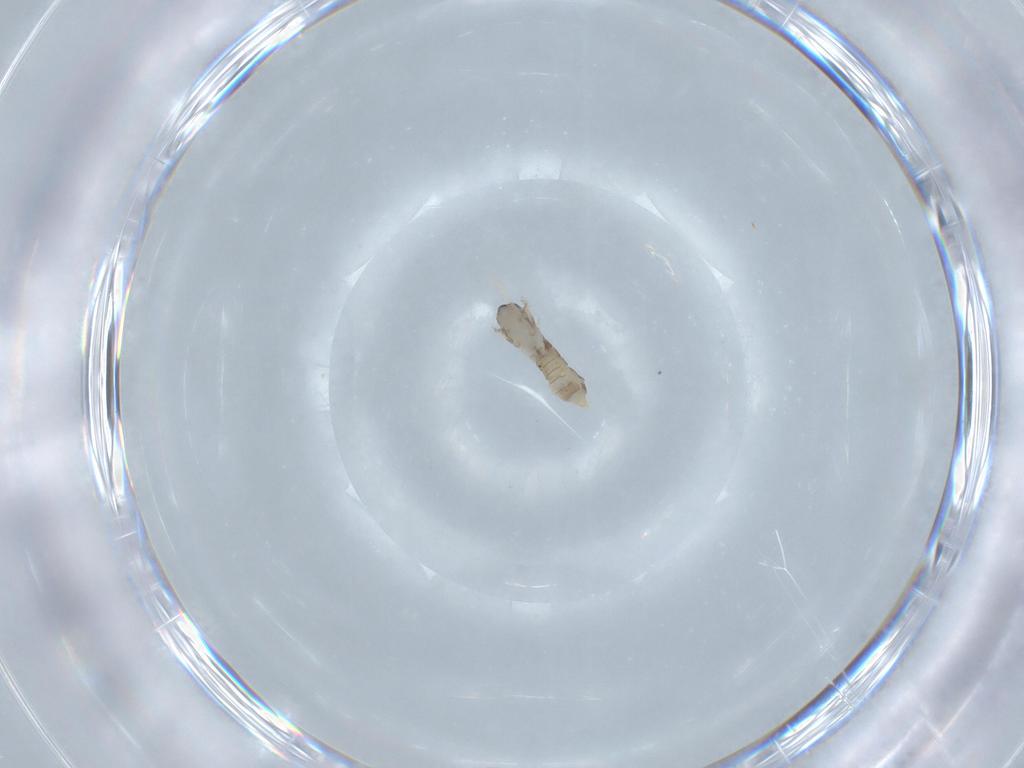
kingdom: Animalia
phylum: Arthropoda
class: Insecta
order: Diptera
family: Cecidomyiidae
